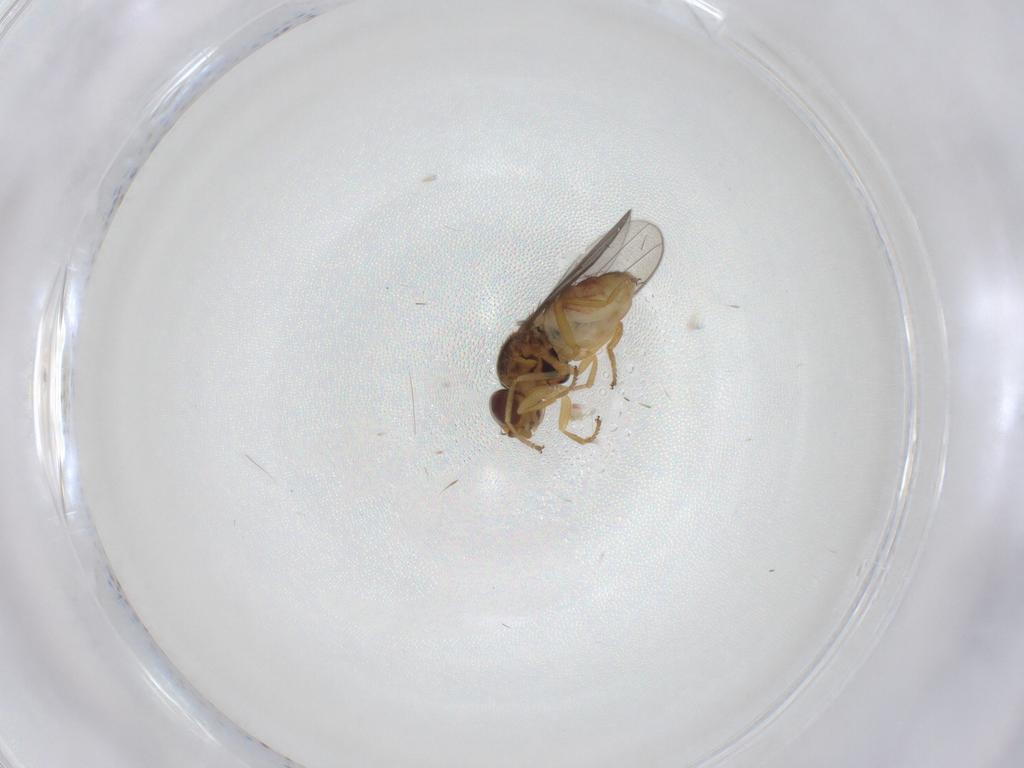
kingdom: Animalia
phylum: Arthropoda
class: Insecta
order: Diptera
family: Chloropidae
